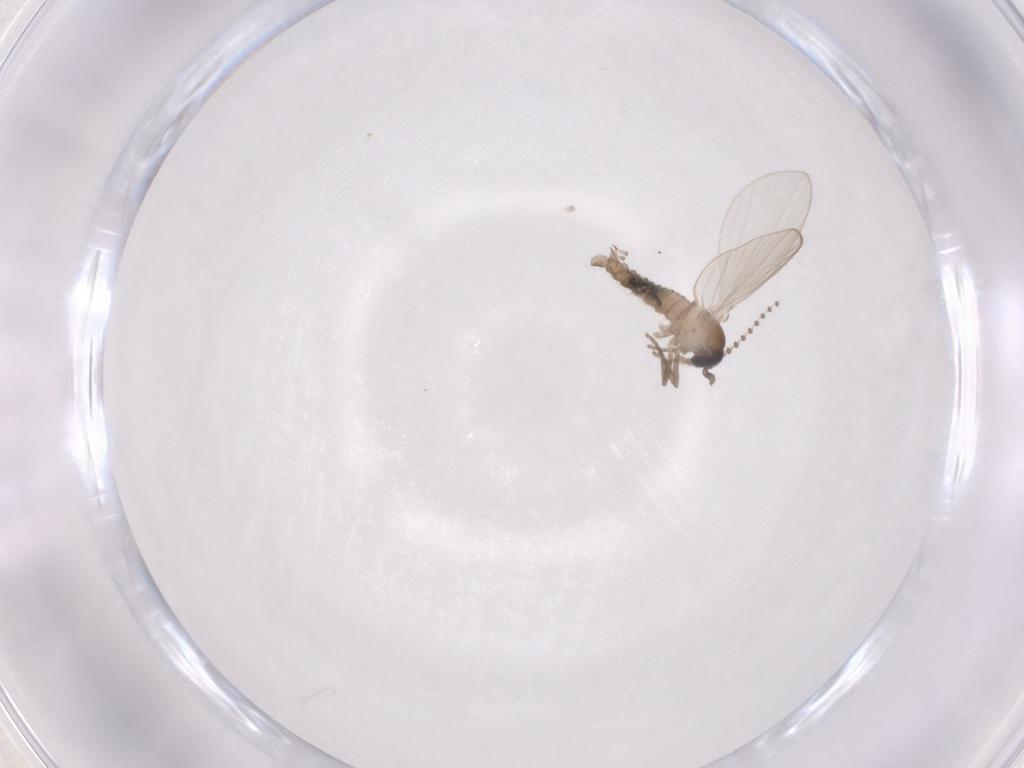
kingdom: Animalia
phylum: Arthropoda
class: Insecta
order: Diptera
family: Psychodidae
